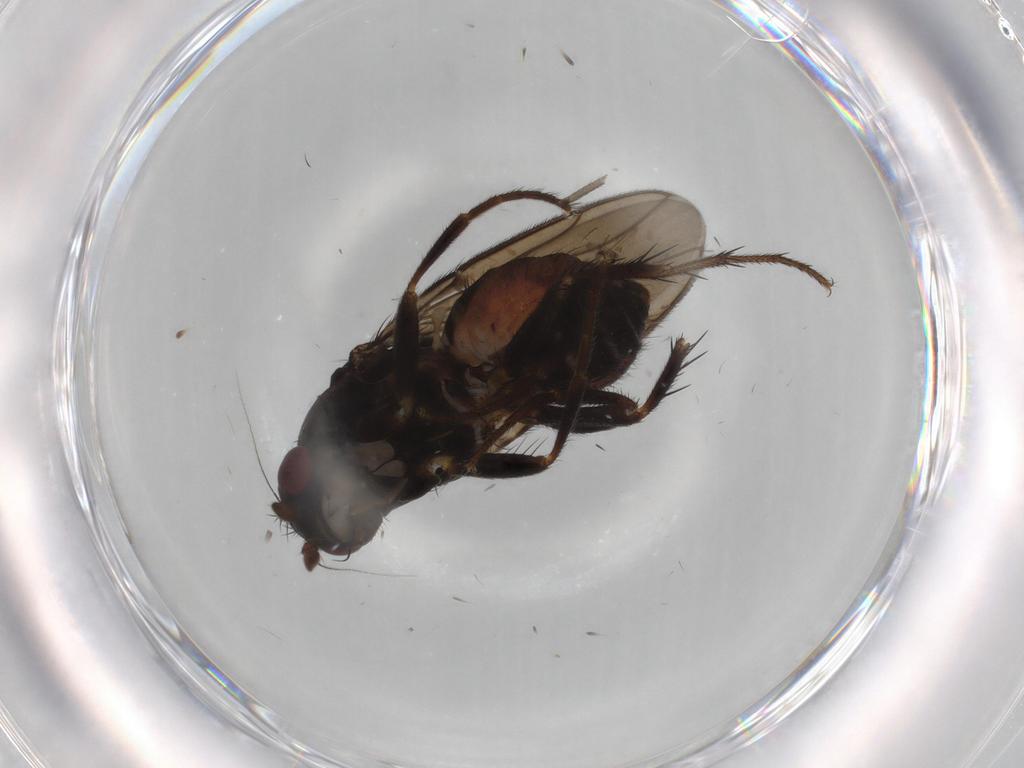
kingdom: Animalia
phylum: Arthropoda
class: Insecta
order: Diptera
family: Sphaeroceridae
